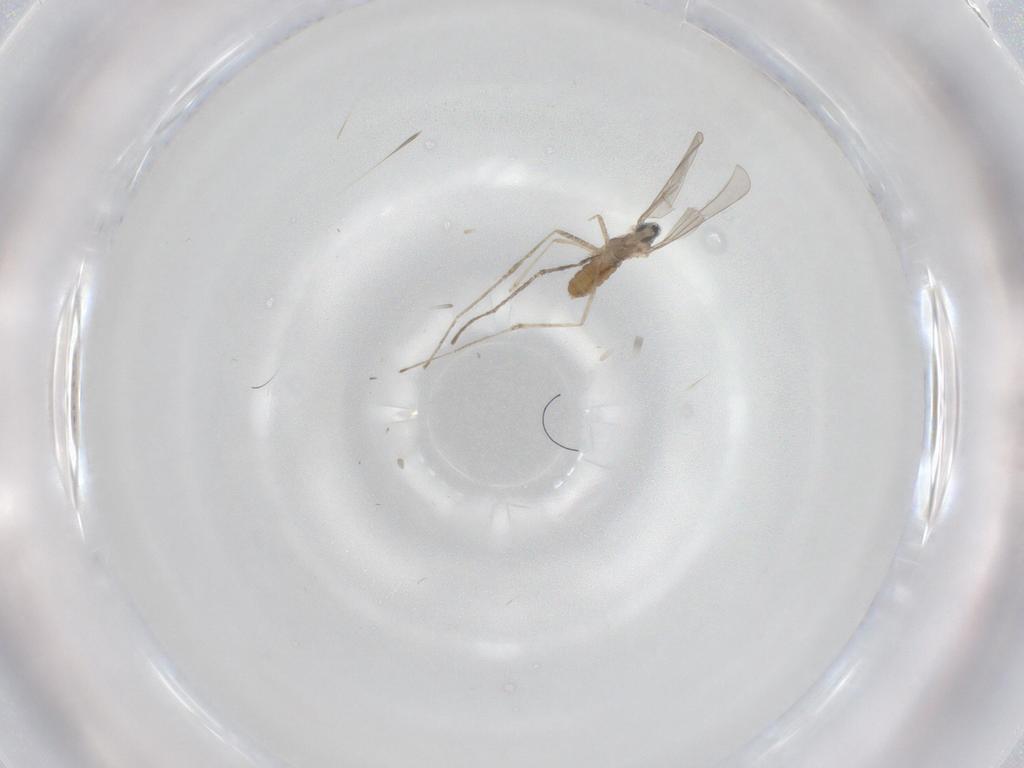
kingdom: Animalia
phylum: Arthropoda
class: Insecta
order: Diptera
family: Cecidomyiidae
